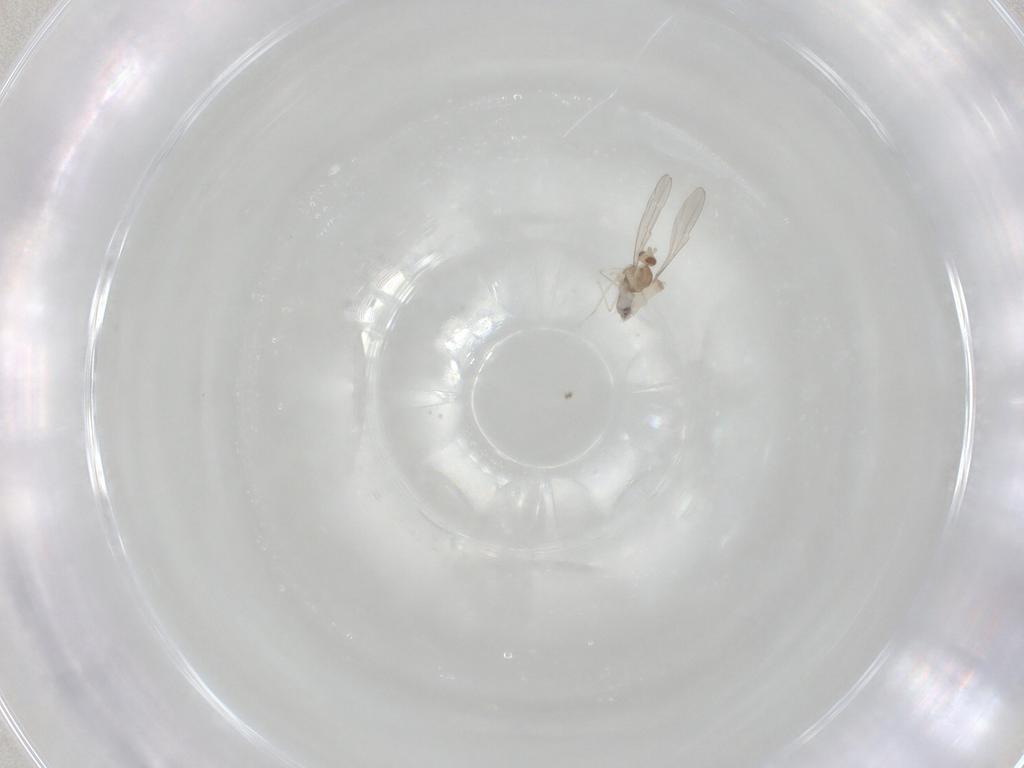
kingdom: Animalia
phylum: Arthropoda
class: Insecta
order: Diptera
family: Cecidomyiidae
